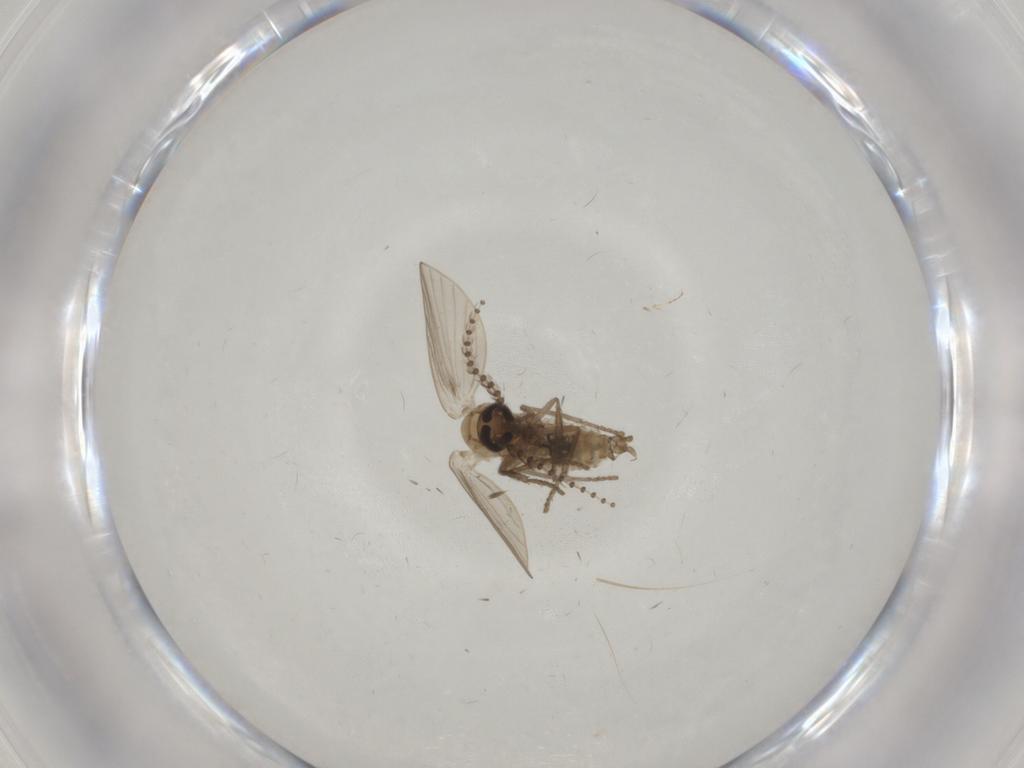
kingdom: Animalia
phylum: Arthropoda
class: Insecta
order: Diptera
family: Psychodidae
